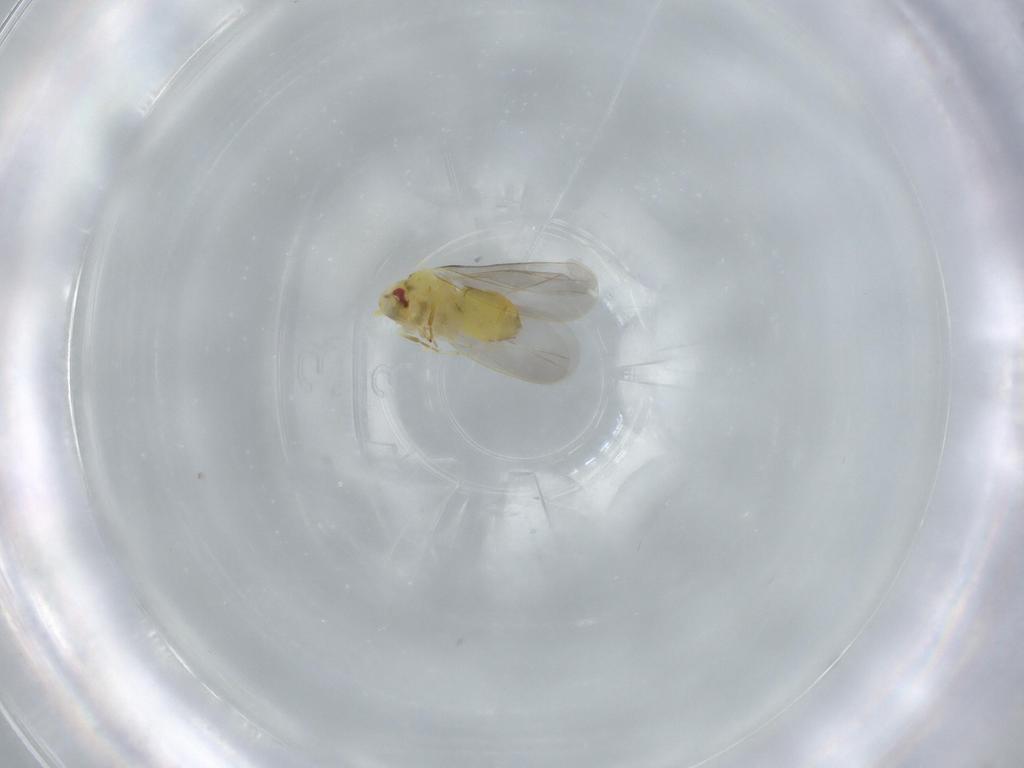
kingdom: Animalia
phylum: Arthropoda
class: Insecta
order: Hemiptera
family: Aleyrodidae
